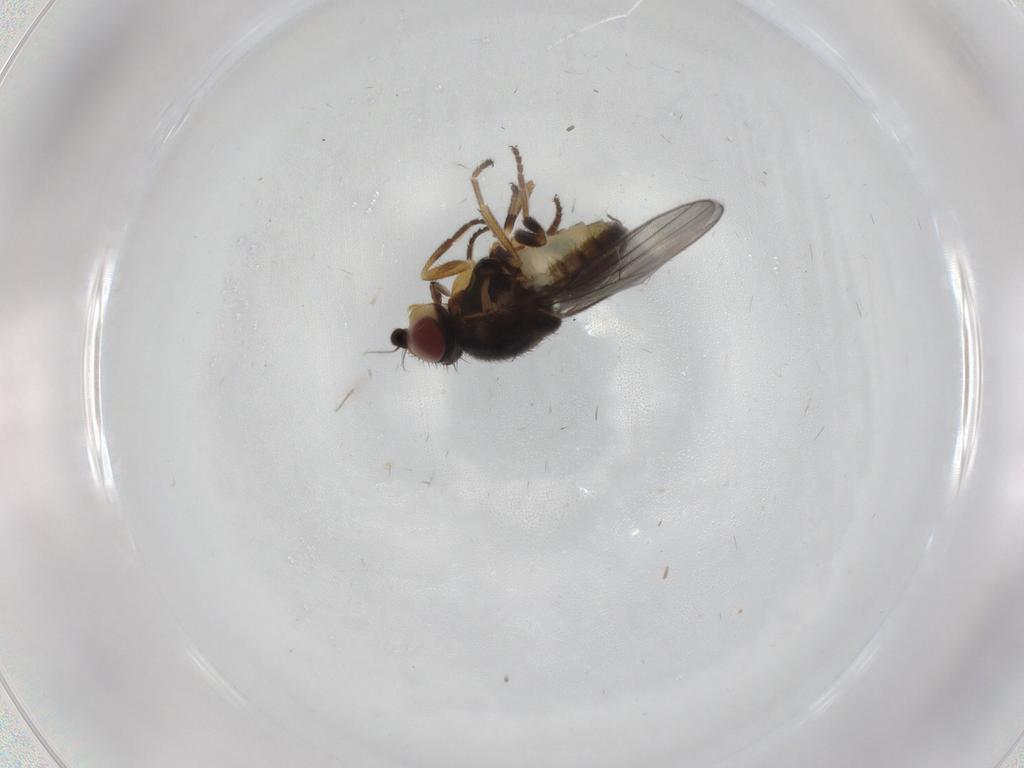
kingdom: Animalia
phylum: Arthropoda
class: Insecta
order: Diptera
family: Chloropidae
